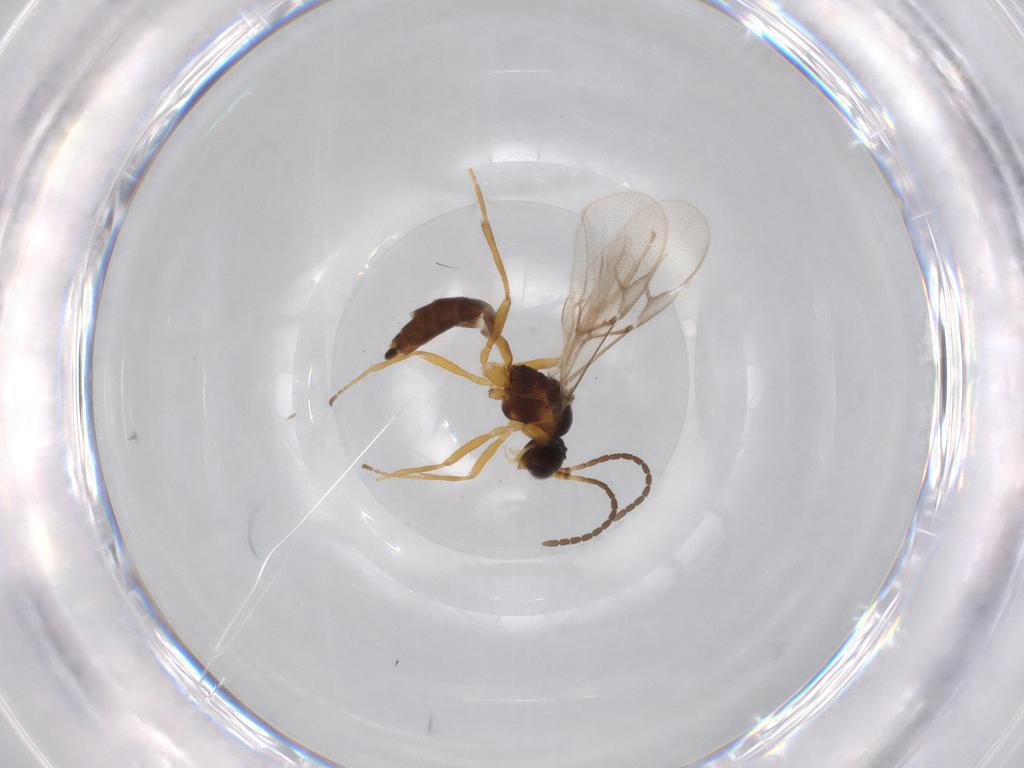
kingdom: Animalia
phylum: Arthropoda
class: Insecta
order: Hymenoptera
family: Braconidae
